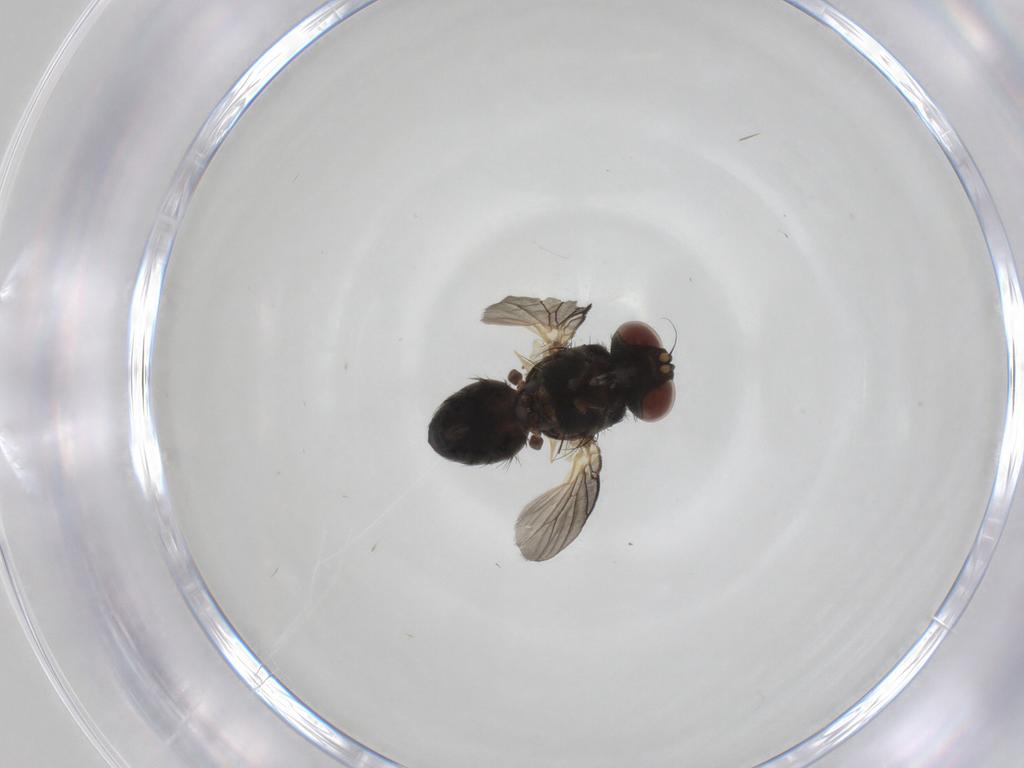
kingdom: Animalia
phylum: Arthropoda
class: Insecta
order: Diptera
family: Muscidae
